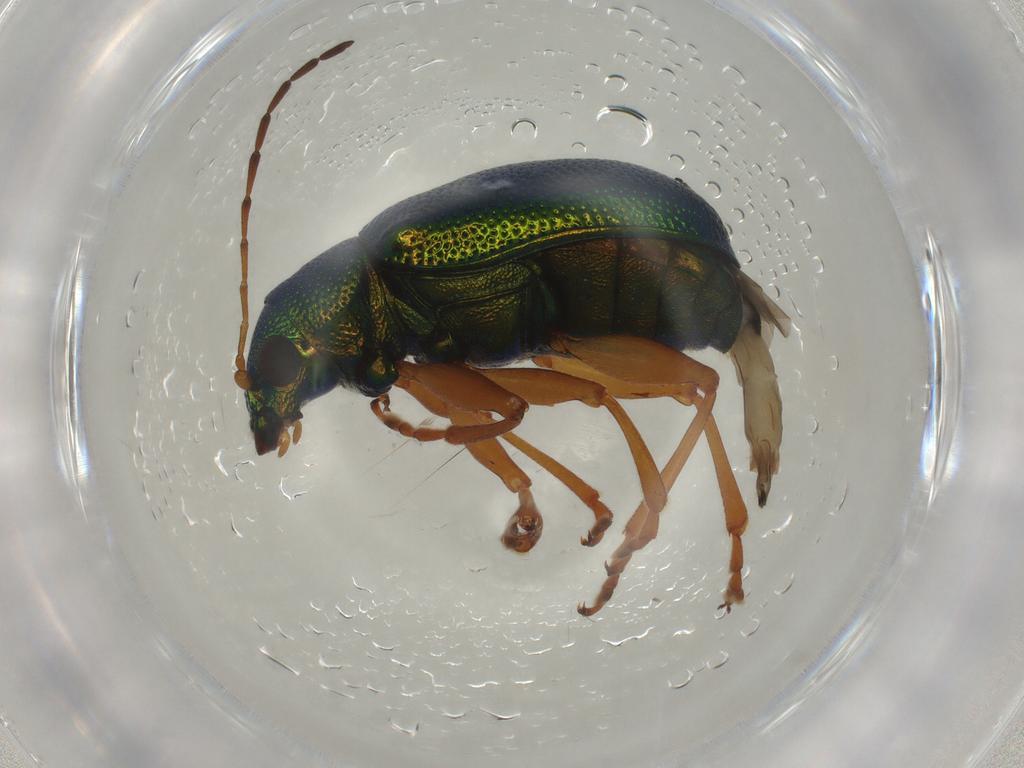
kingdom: Animalia
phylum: Arthropoda
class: Insecta
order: Coleoptera
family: Chrysomelidae
